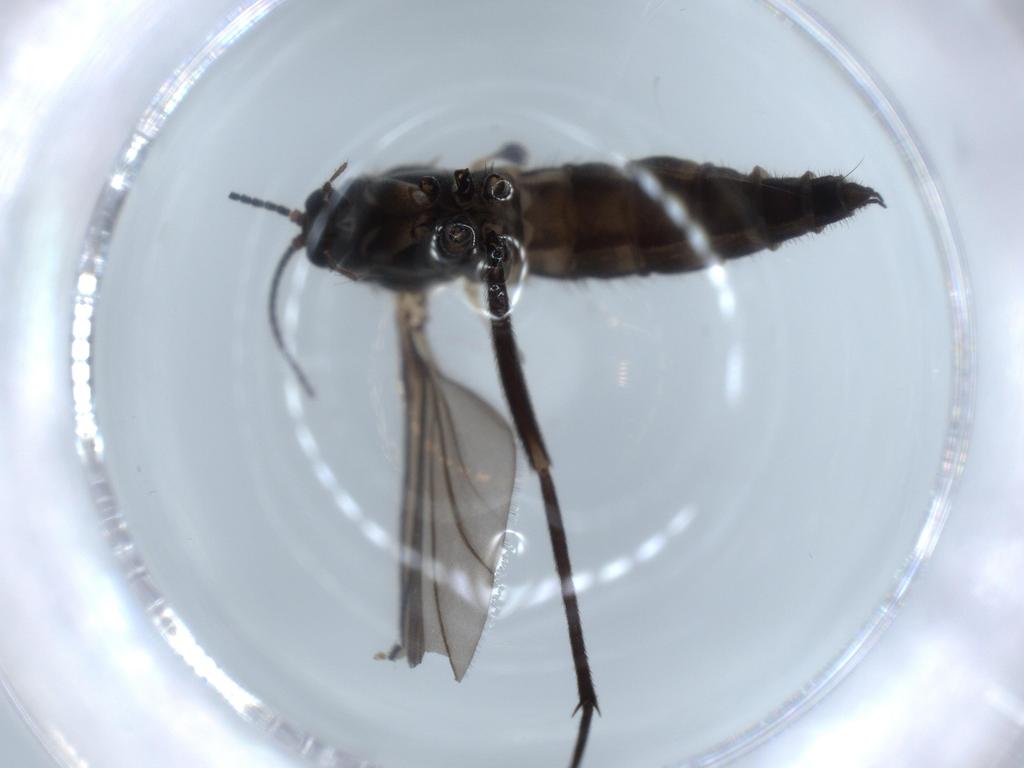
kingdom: Animalia
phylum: Arthropoda
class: Insecta
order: Diptera
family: Sciaridae
